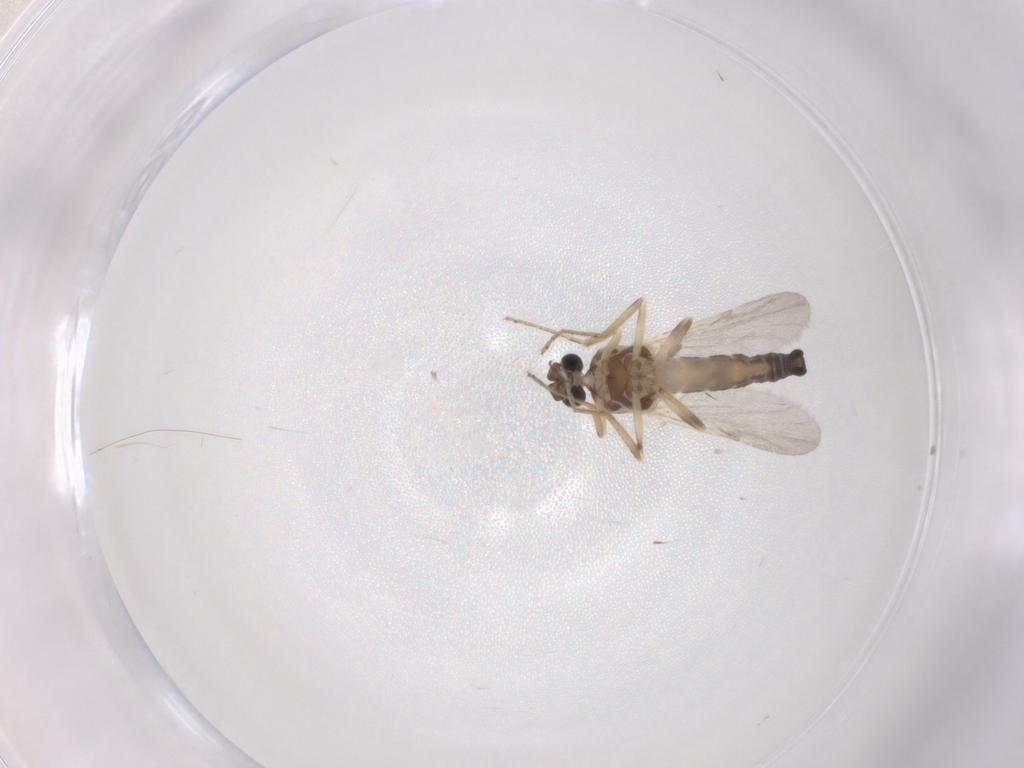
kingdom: Animalia
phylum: Arthropoda
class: Insecta
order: Diptera
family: Ceratopogonidae
